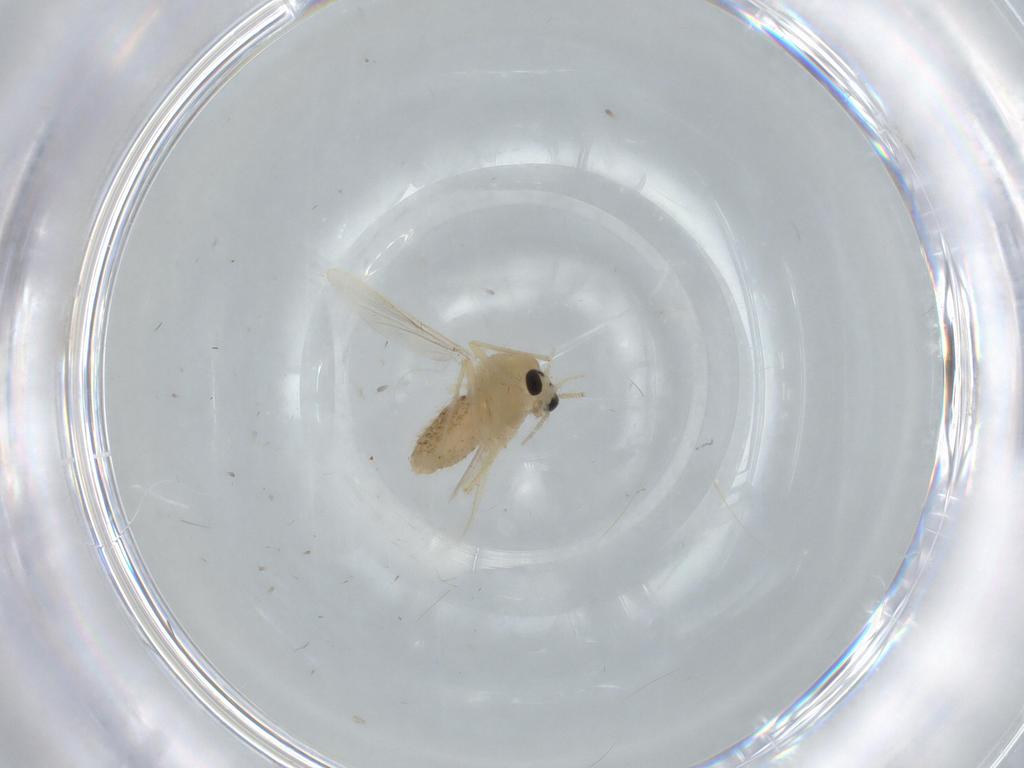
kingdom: Animalia
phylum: Arthropoda
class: Insecta
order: Diptera
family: Chironomidae
